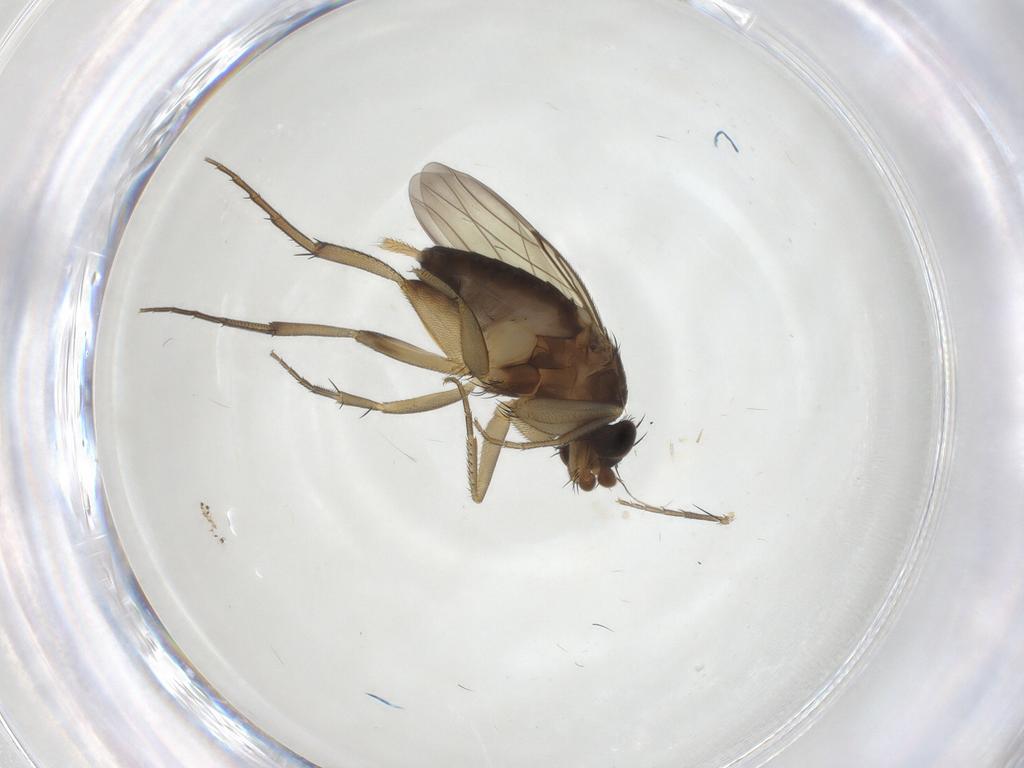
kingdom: Animalia
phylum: Arthropoda
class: Insecta
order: Diptera
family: Phoridae
